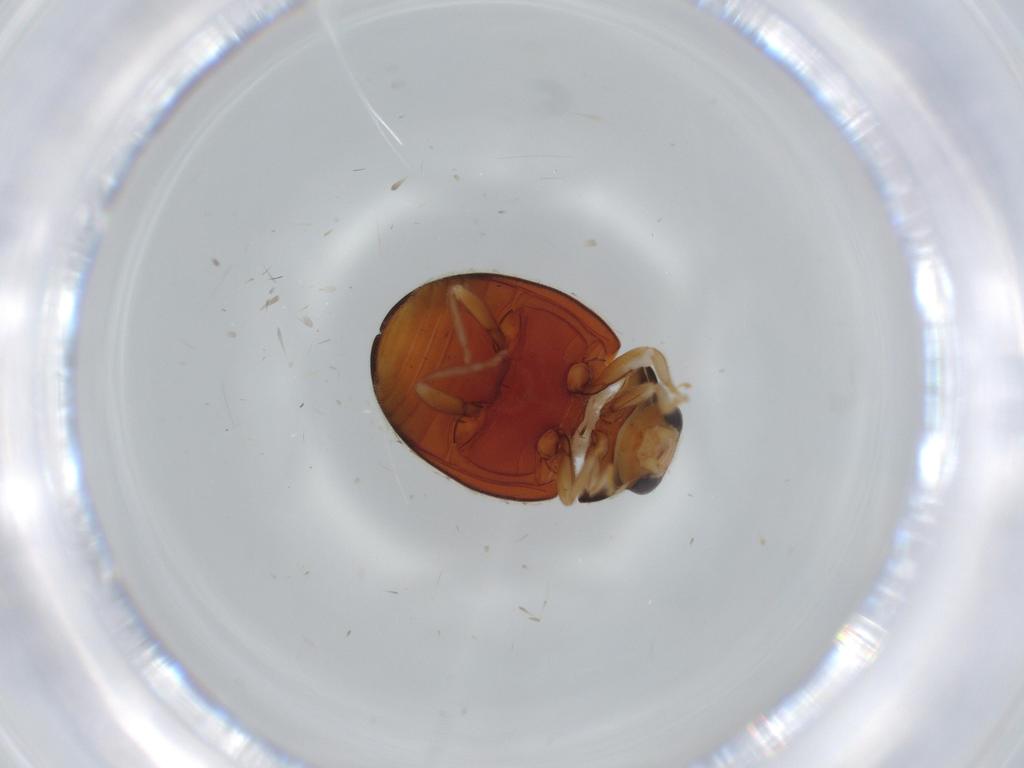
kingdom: Animalia
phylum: Arthropoda
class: Insecta
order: Coleoptera
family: Coccinellidae
